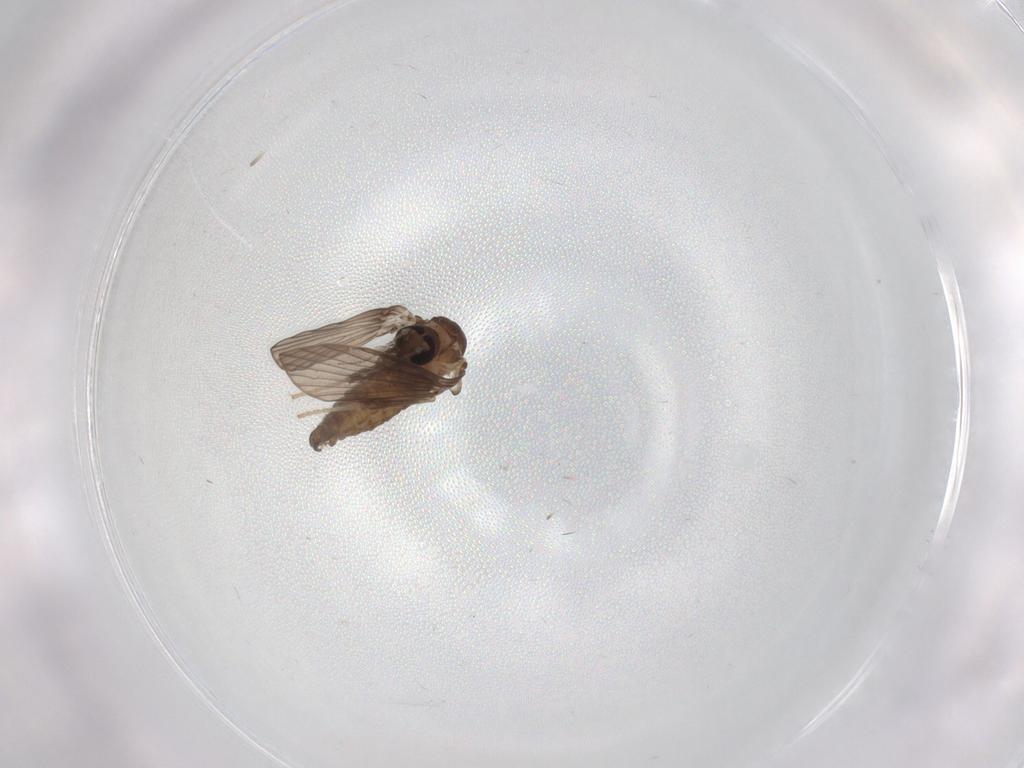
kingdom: Animalia
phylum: Arthropoda
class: Insecta
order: Diptera
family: Psychodidae
